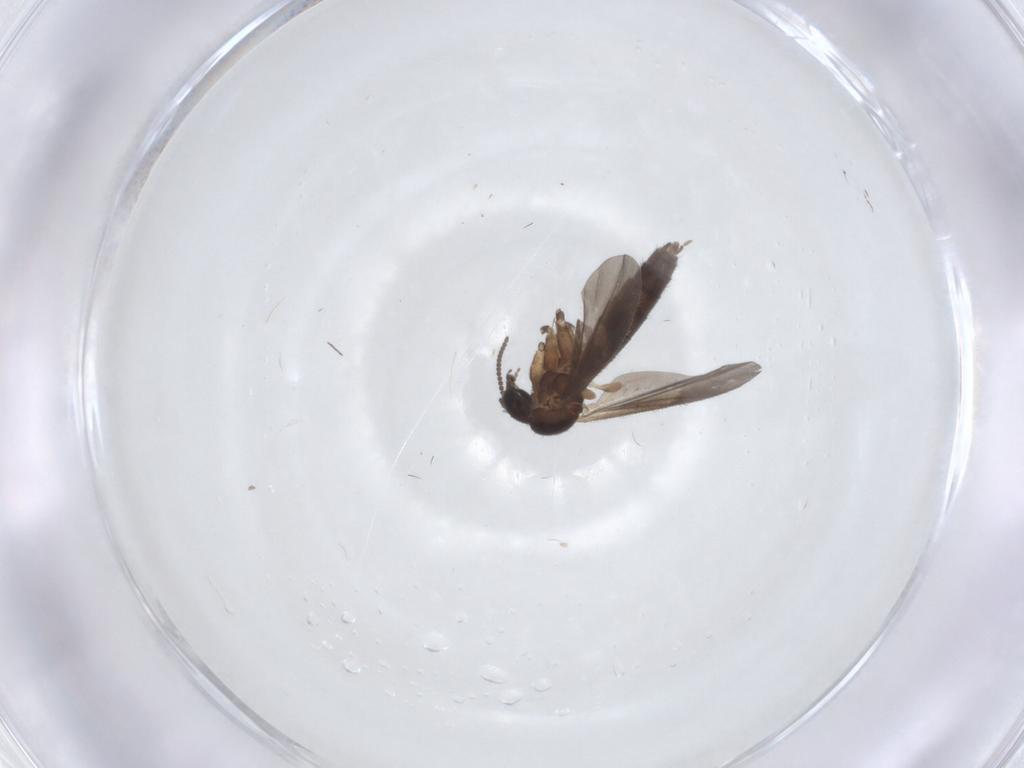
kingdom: Animalia
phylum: Arthropoda
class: Insecta
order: Diptera
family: Mycetophilidae
